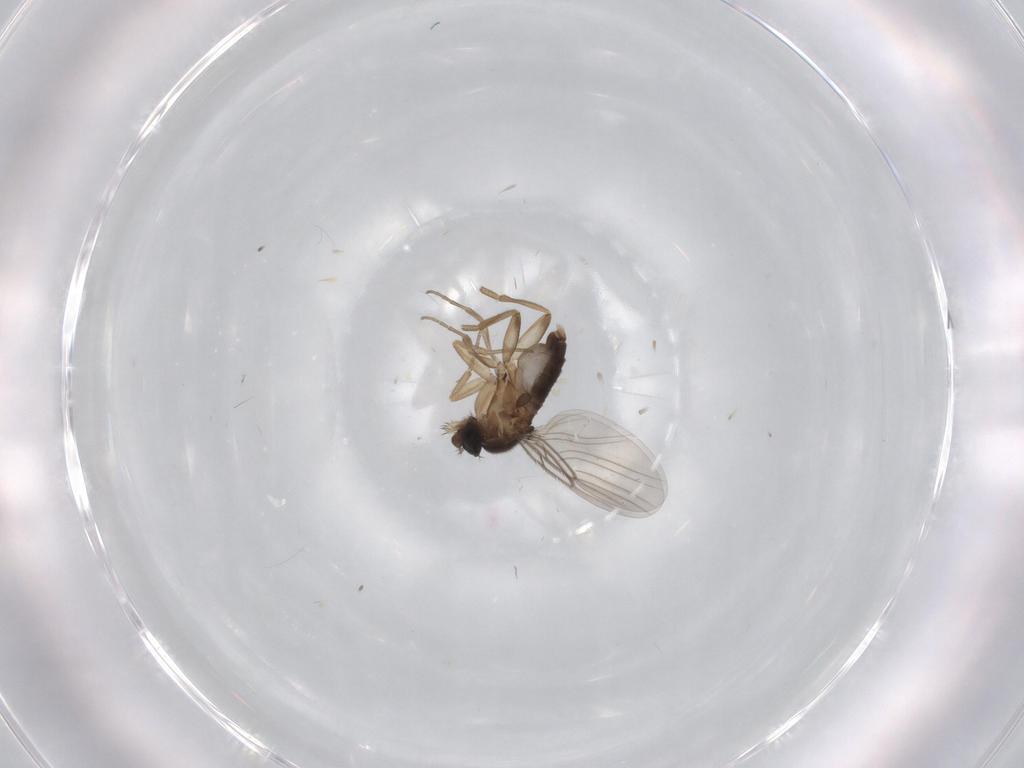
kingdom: Animalia
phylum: Arthropoda
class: Insecta
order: Diptera
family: Phoridae
